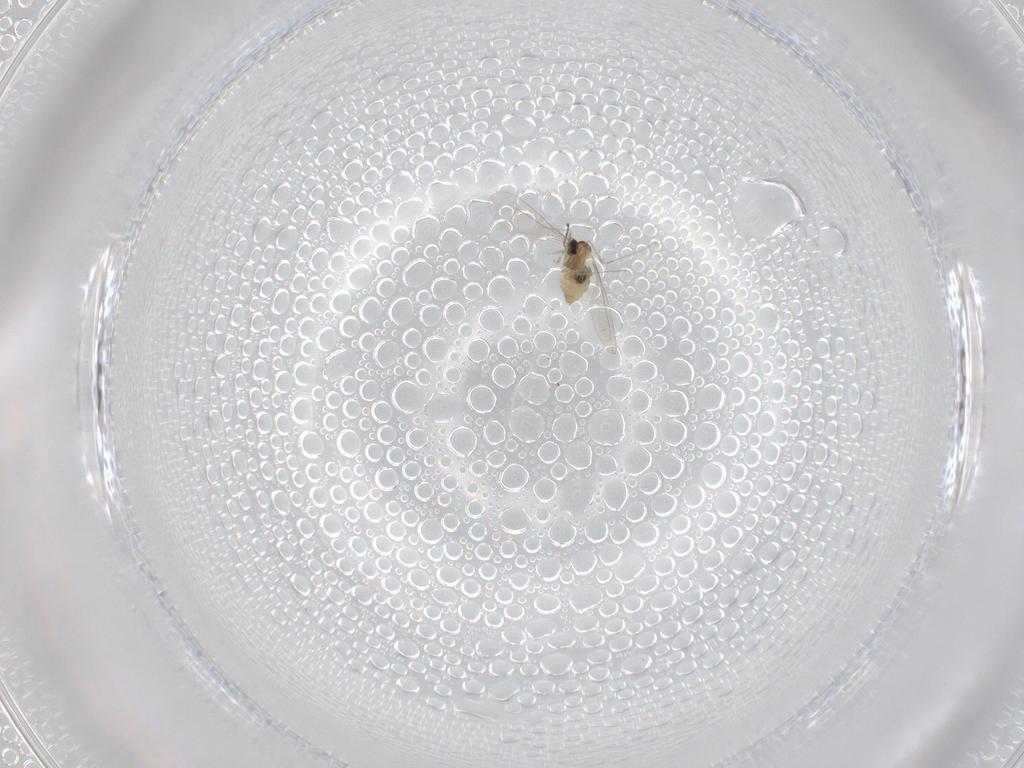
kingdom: Animalia
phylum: Arthropoda
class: Insecta
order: Diptera
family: Cecidomyiidae
